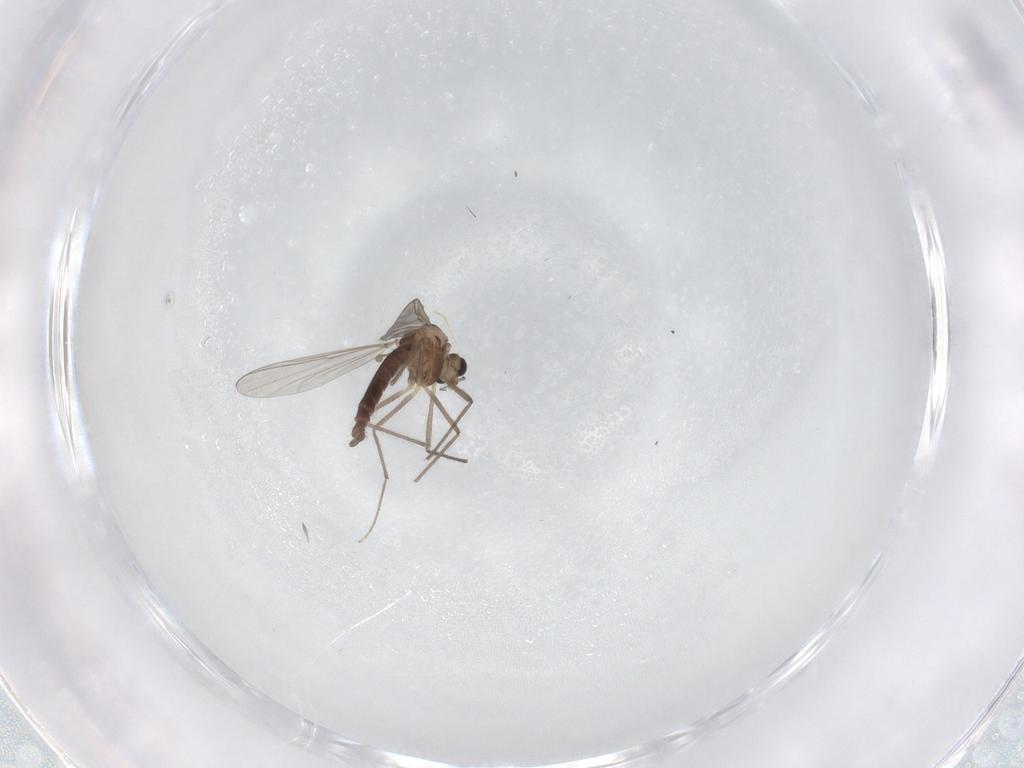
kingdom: Animalia
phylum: Arthropoda
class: Insecta
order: Diptera
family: Chironomidae
